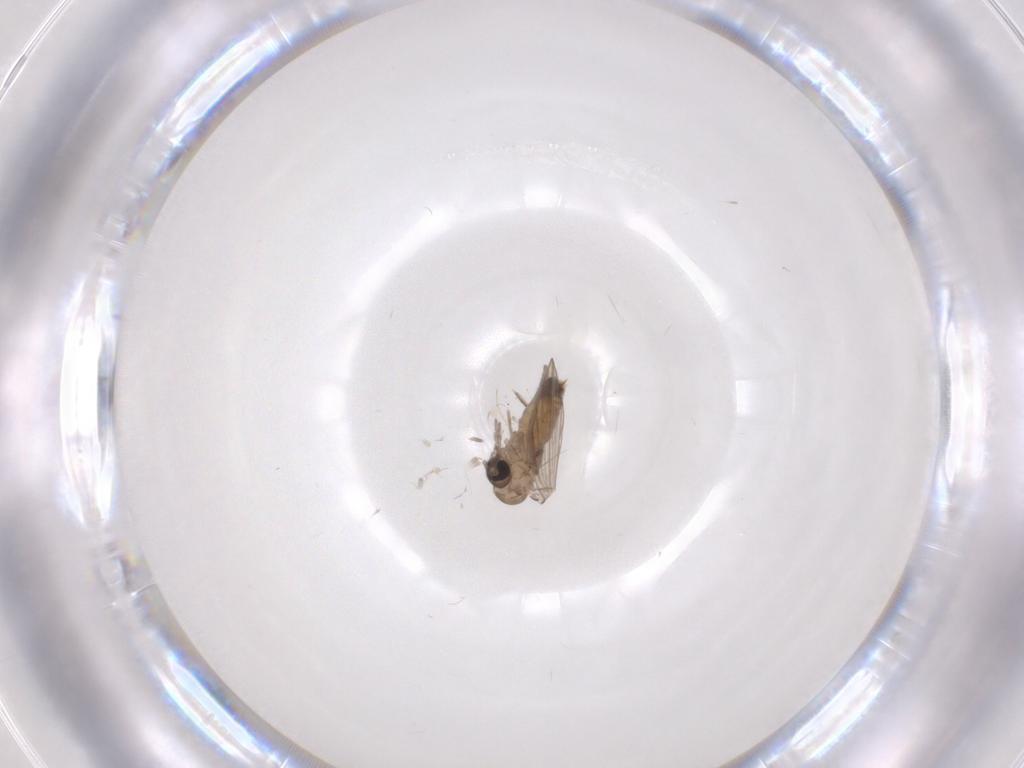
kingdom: Animalia
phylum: Arthropoda
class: Insecta
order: Diptera
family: Psychodidae
